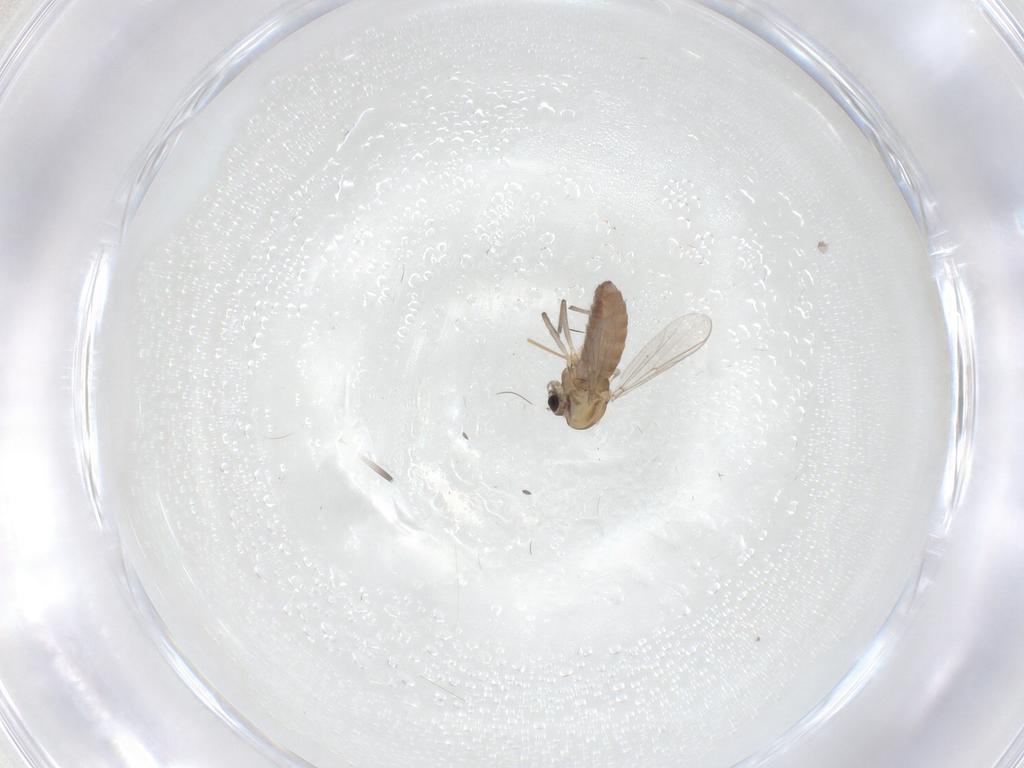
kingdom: Animalia
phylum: Arthropoda
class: Insecta
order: Diptera
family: Chironomidae
